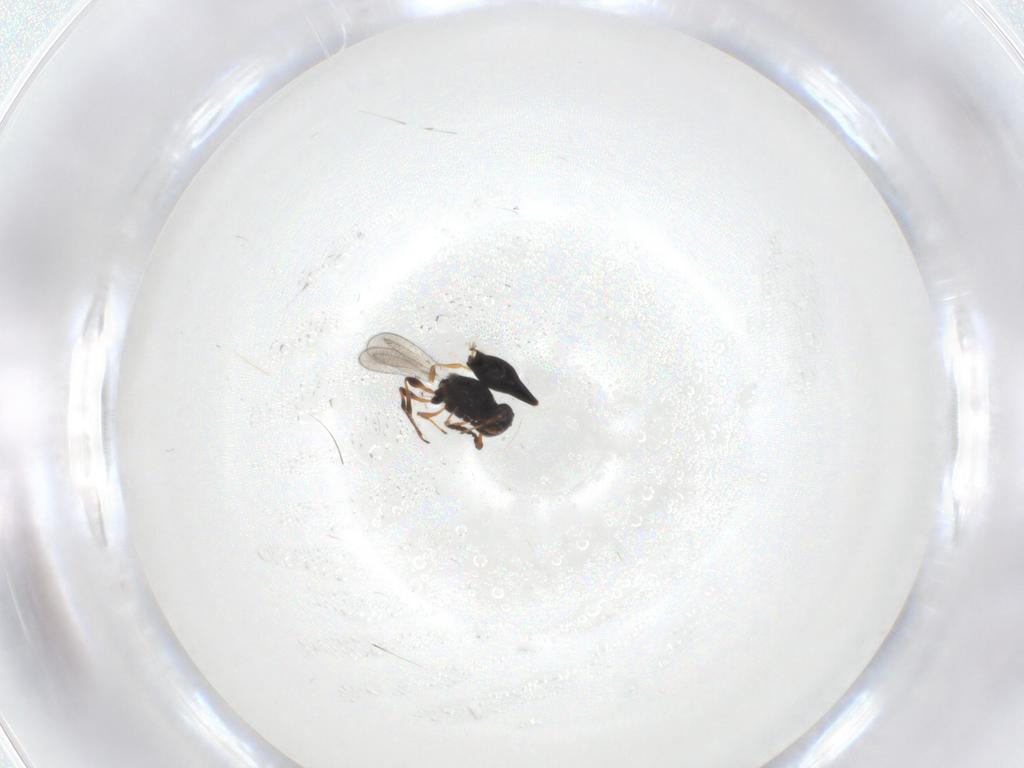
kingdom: Animalia
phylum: Arthropoda
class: Insecta
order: Hymenoptera
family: Platygastridae
